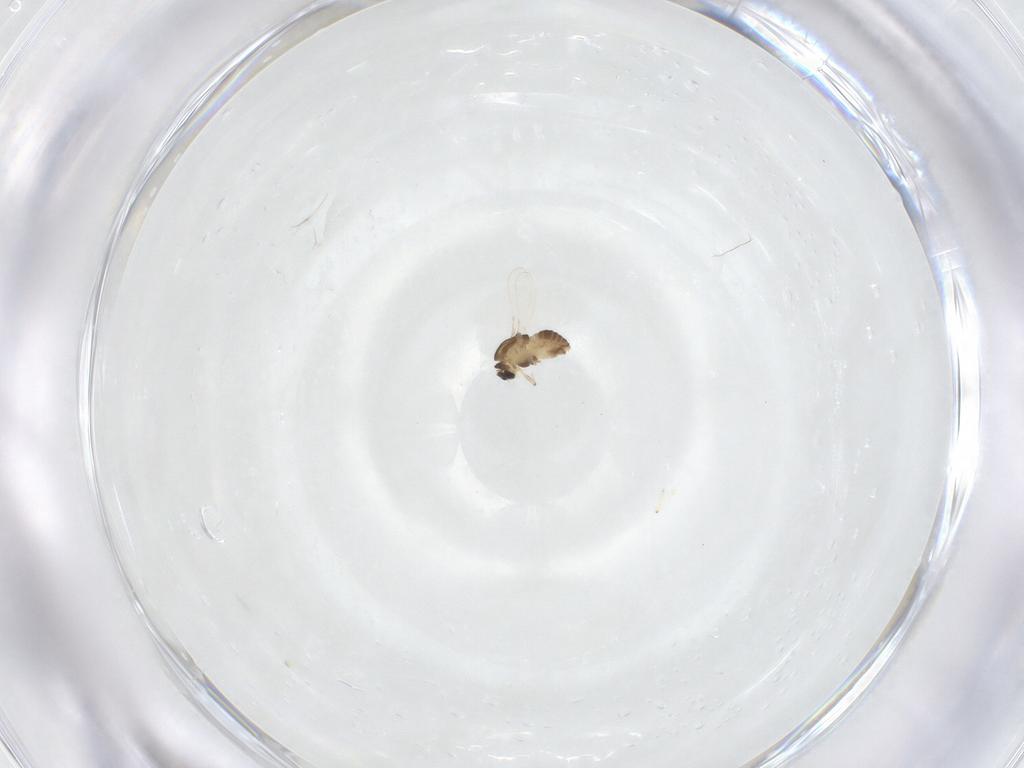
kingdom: Animalia
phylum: Arthropoda
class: Insecta
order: Diptera
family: Chironomidae
